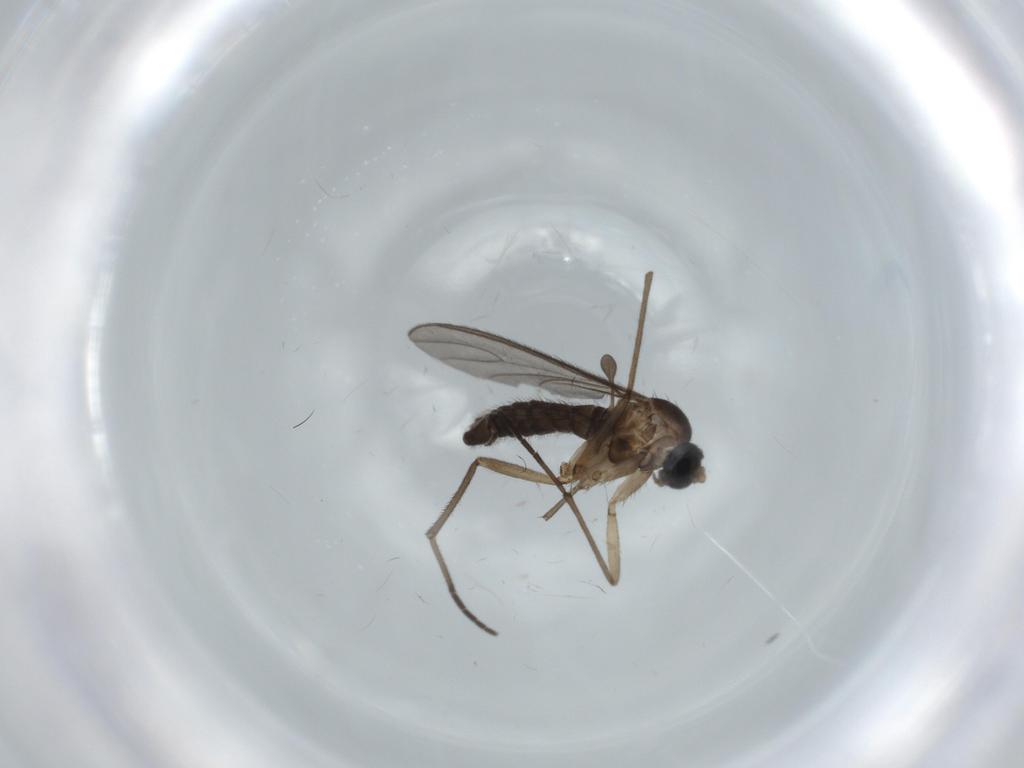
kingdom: Animalia
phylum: Arthropoda
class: Insecta
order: Diptera
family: Sciaridae
